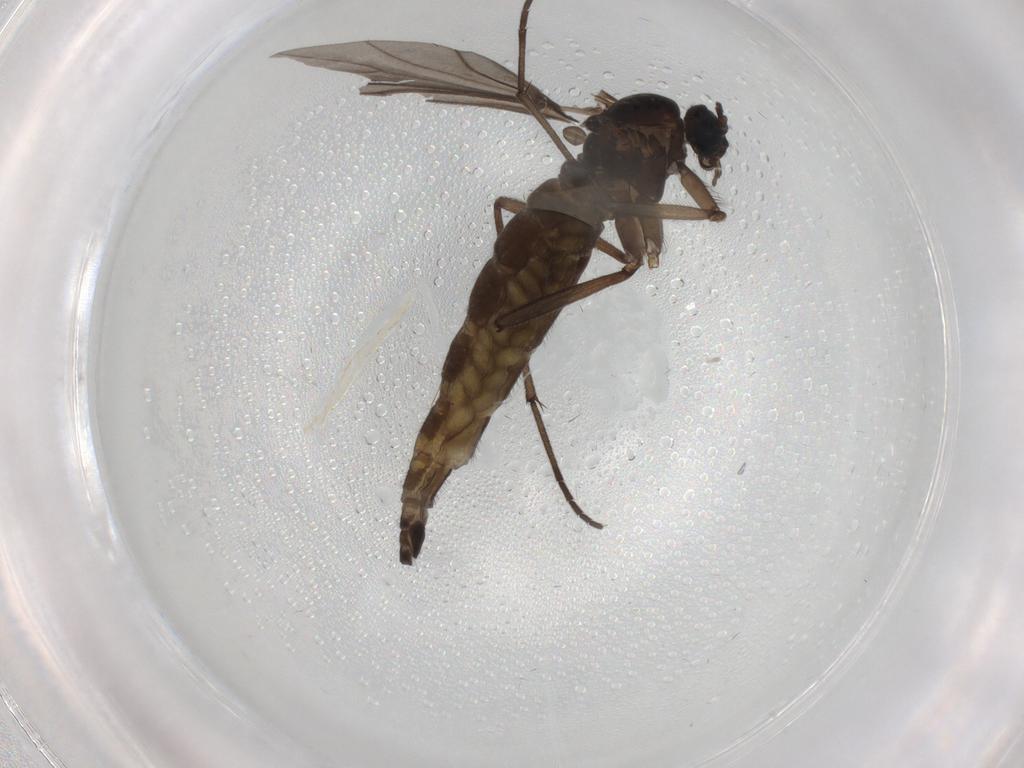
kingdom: Animalia
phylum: Arthropoda
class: Insecta
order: Diptera
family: Sciaridae
